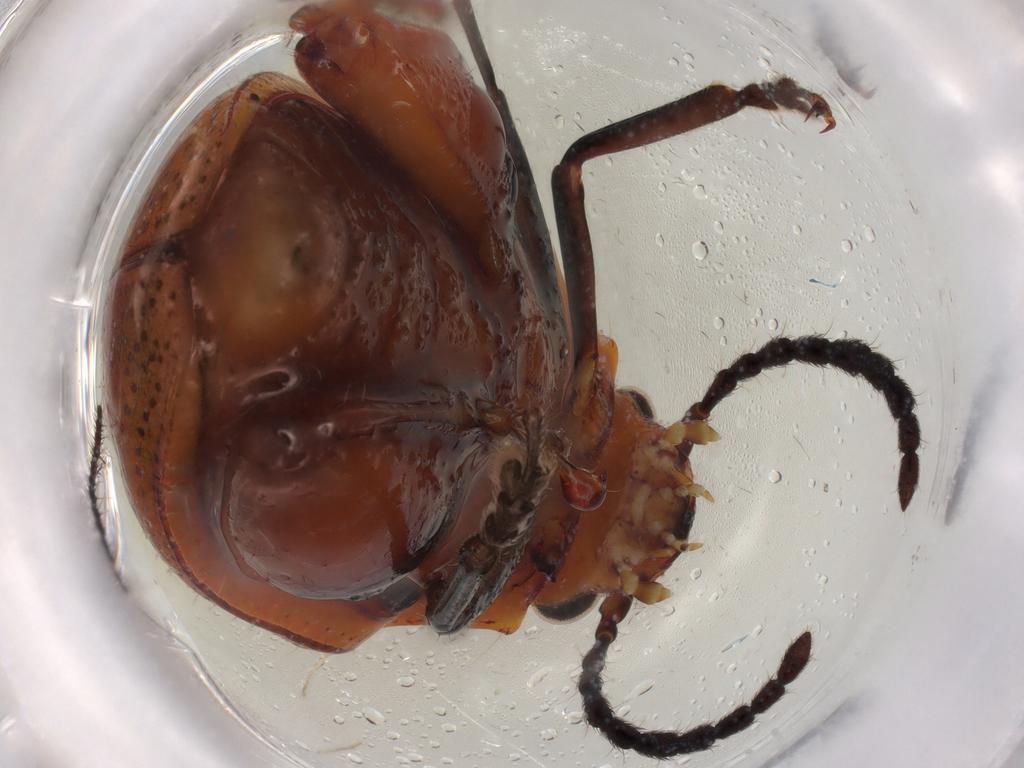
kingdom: Animalia
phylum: Arthropoda
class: Insecta
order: Coleoptera
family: Chrysomelidae
